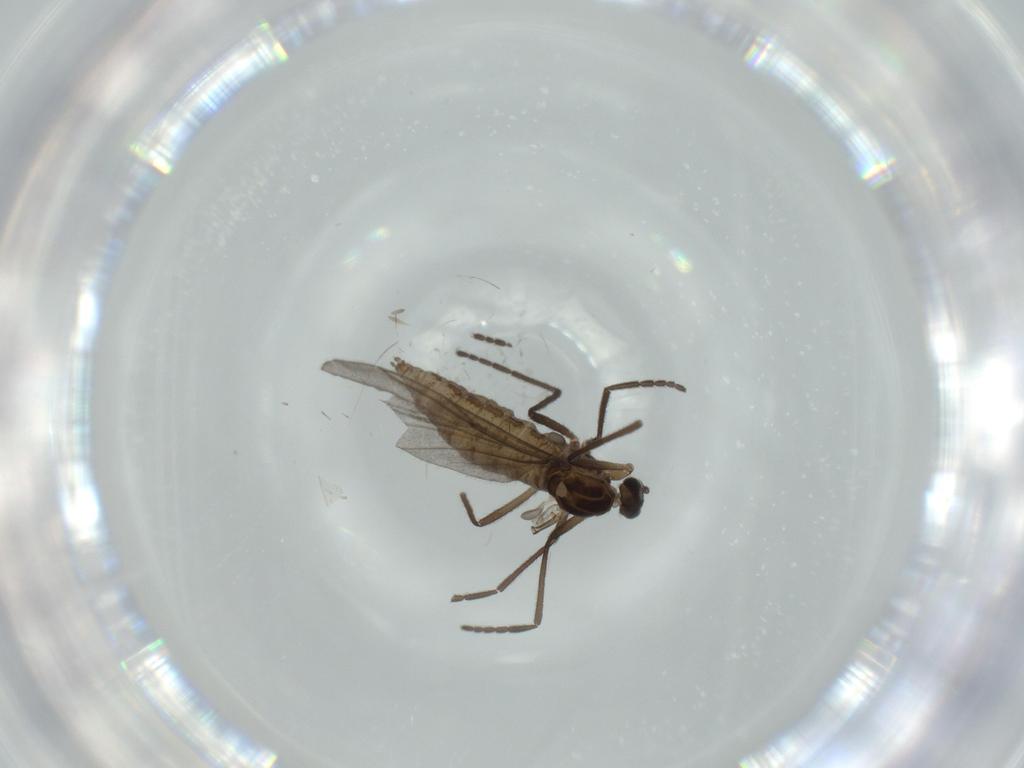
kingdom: Animalia
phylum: Arthropoda
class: Insecta
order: Diptera
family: Cecidomyiidae
